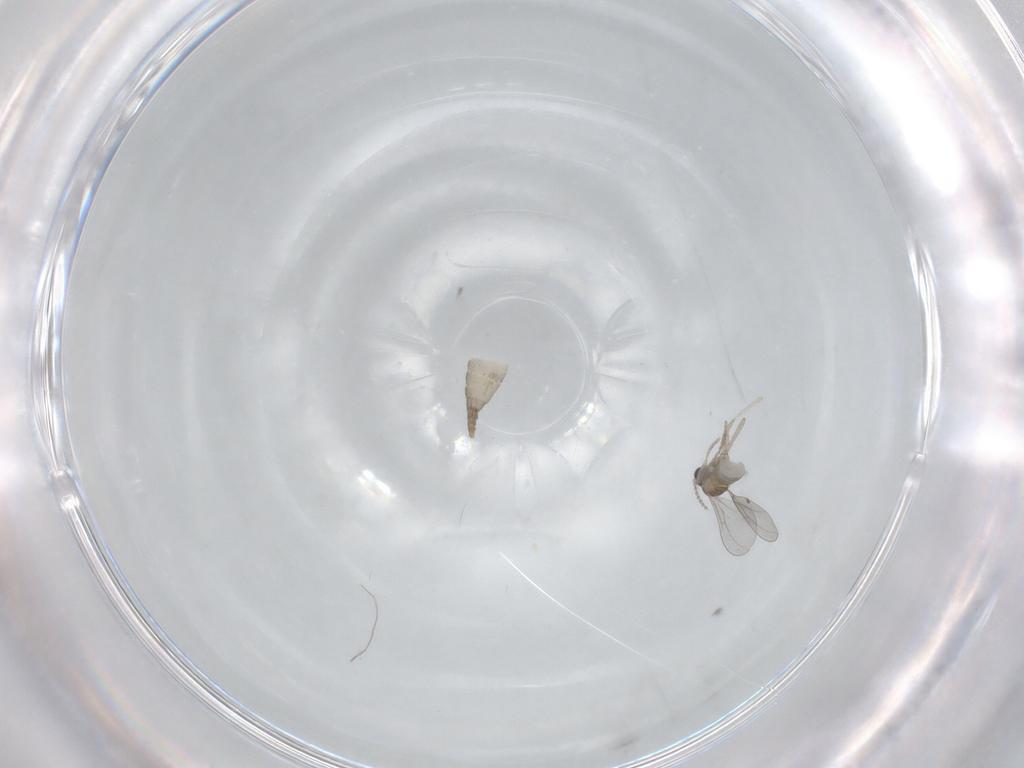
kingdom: Animalia
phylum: Arthropoda
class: Insecta
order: Diptera
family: Cecidomyiidae
